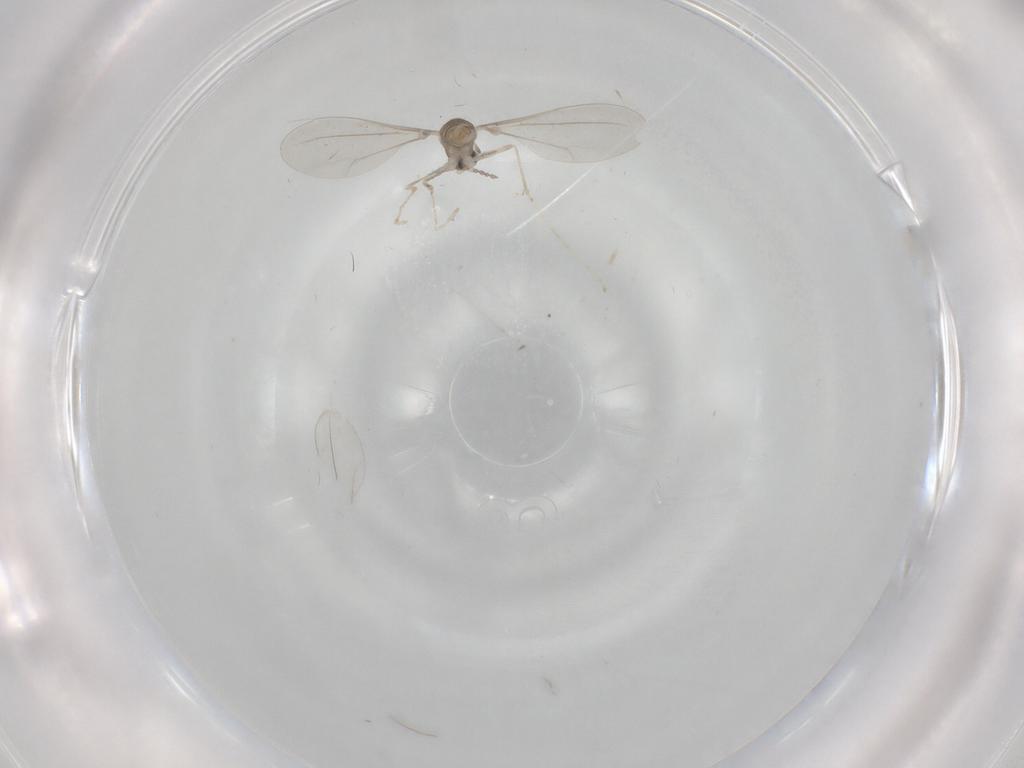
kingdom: Animalia
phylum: Arthropoda
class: Insecta
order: Diptera
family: Cecidomyiidae
